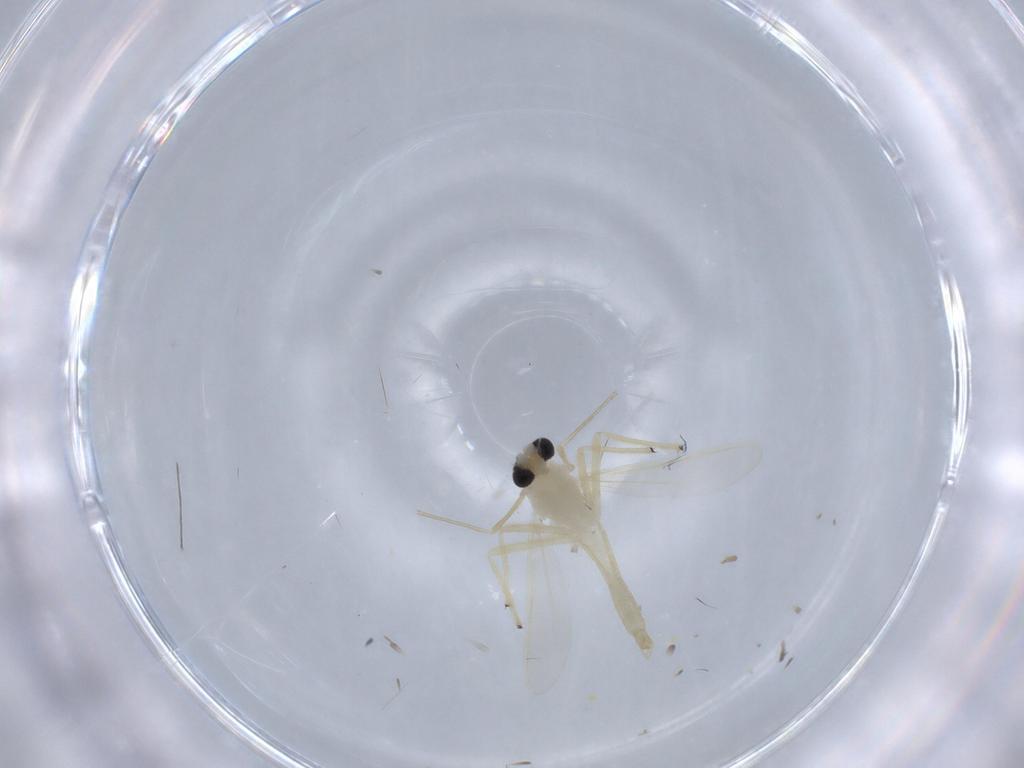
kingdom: Animalia
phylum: Arthropoda
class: Insecta
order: Diptera
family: Chironomidae
